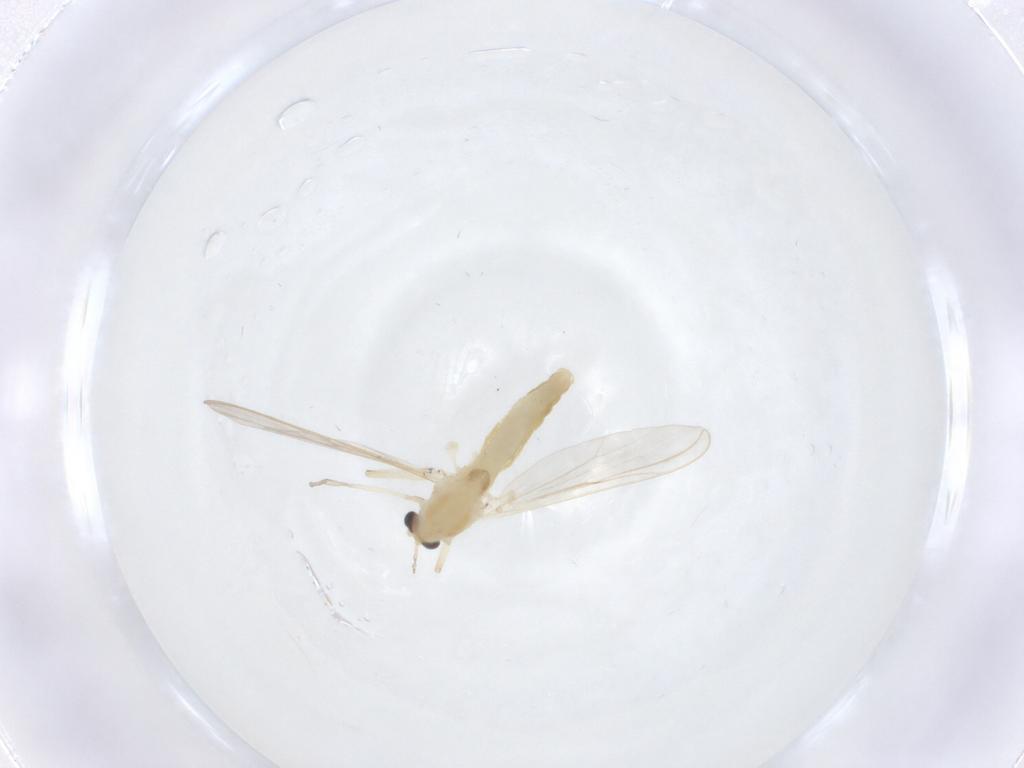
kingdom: Animalia
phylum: Arthropoda
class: Insecta
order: Diptera
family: Chironomidae
